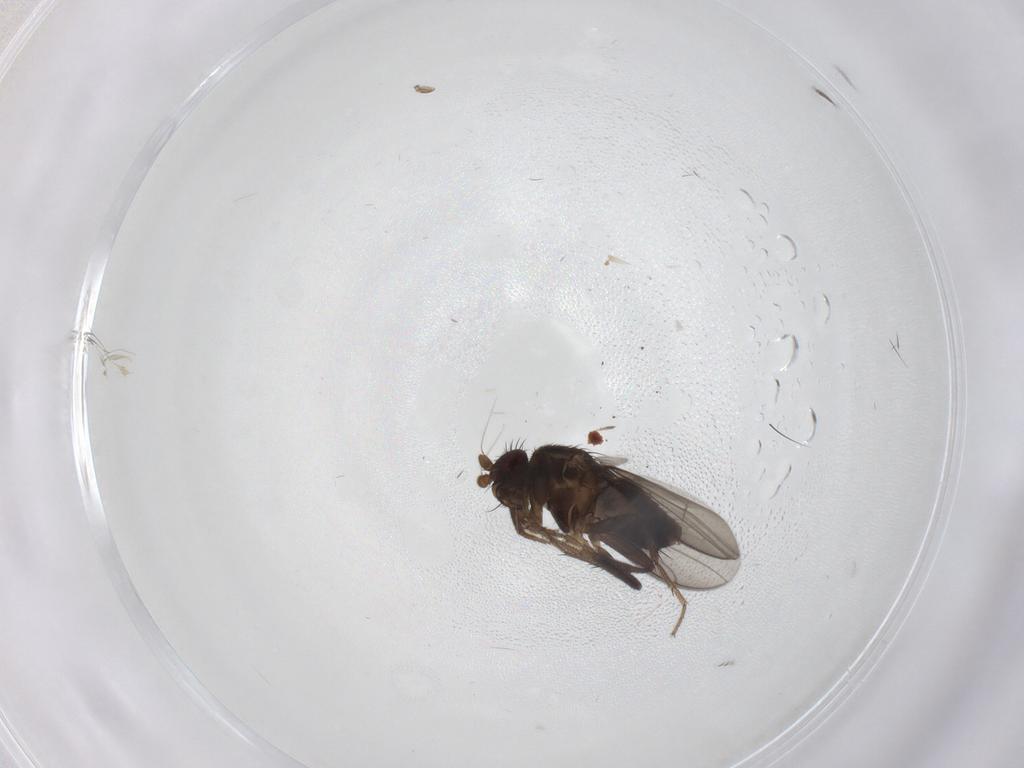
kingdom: Animalia
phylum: Arthropoda
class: Insecta
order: Diptera
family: Sphaeroceridae
